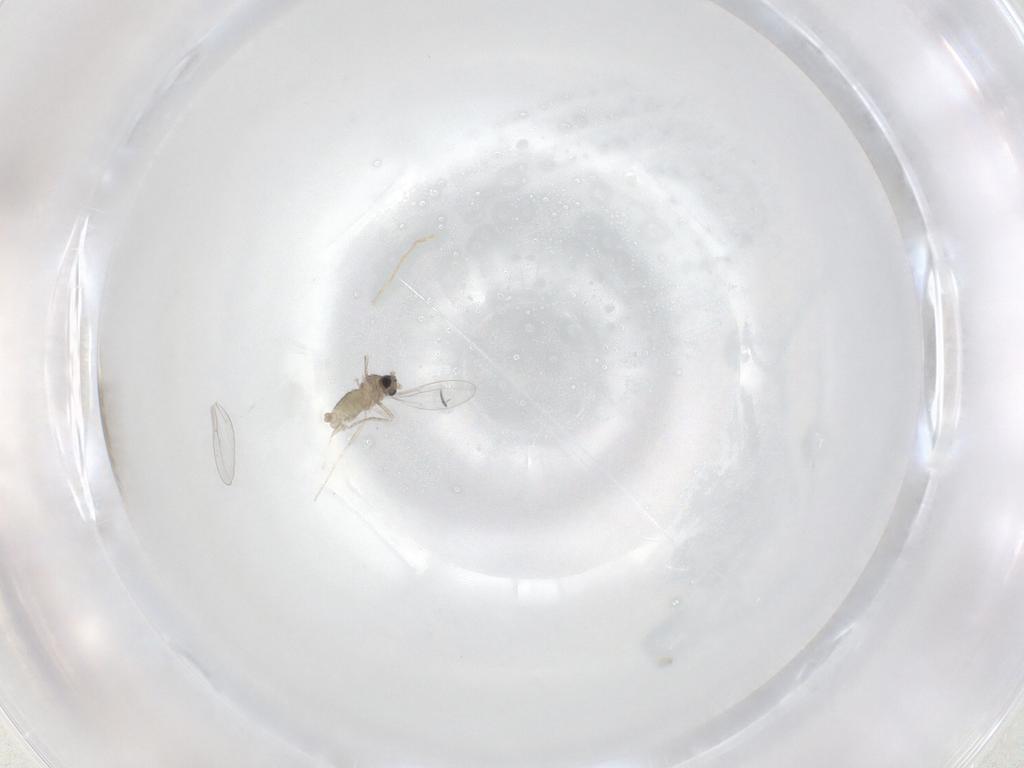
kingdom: Animalia
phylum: Arthropoda
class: Insecta
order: Diptera
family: Cecidomyiidae
